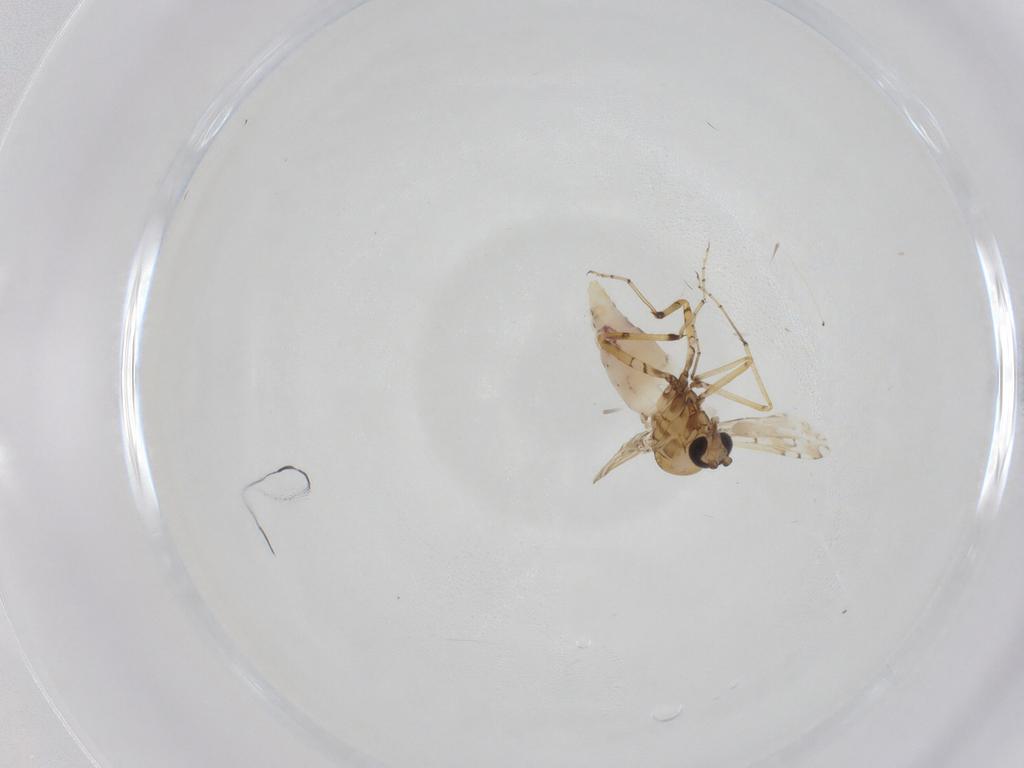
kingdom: Animalia
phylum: Arthropoda
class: Insecta
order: Diptera
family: Ceratopogonidae
